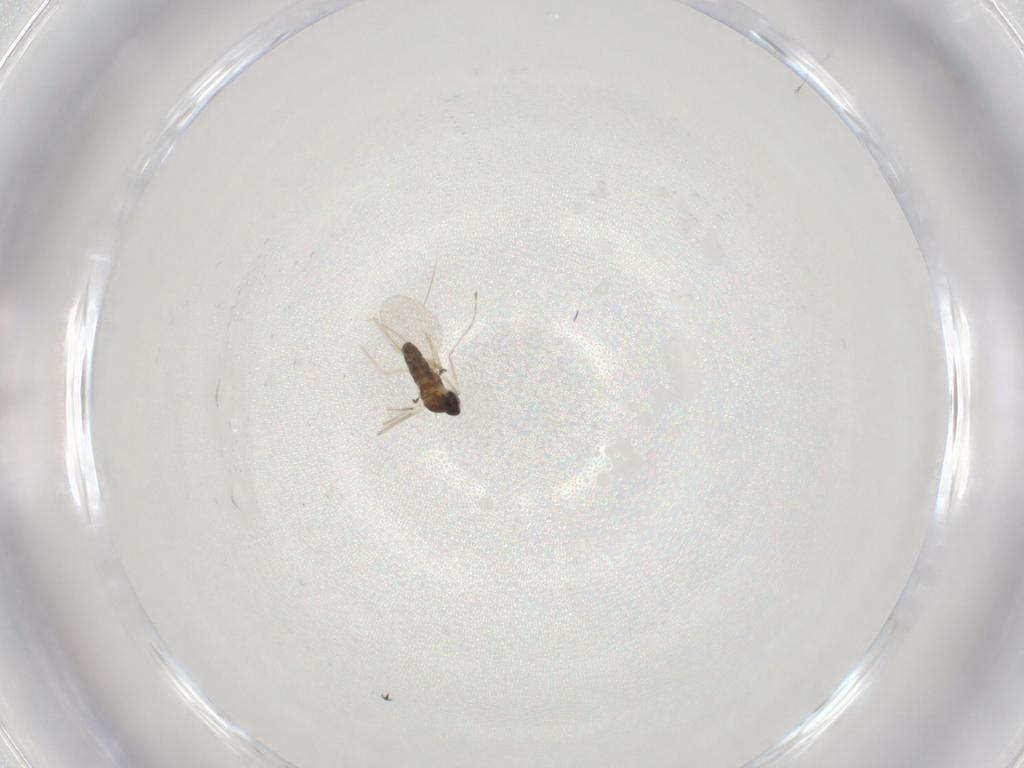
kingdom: Animalia
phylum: Arthropoda
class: Insecta
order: Diptera
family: Cecidomyiidae
